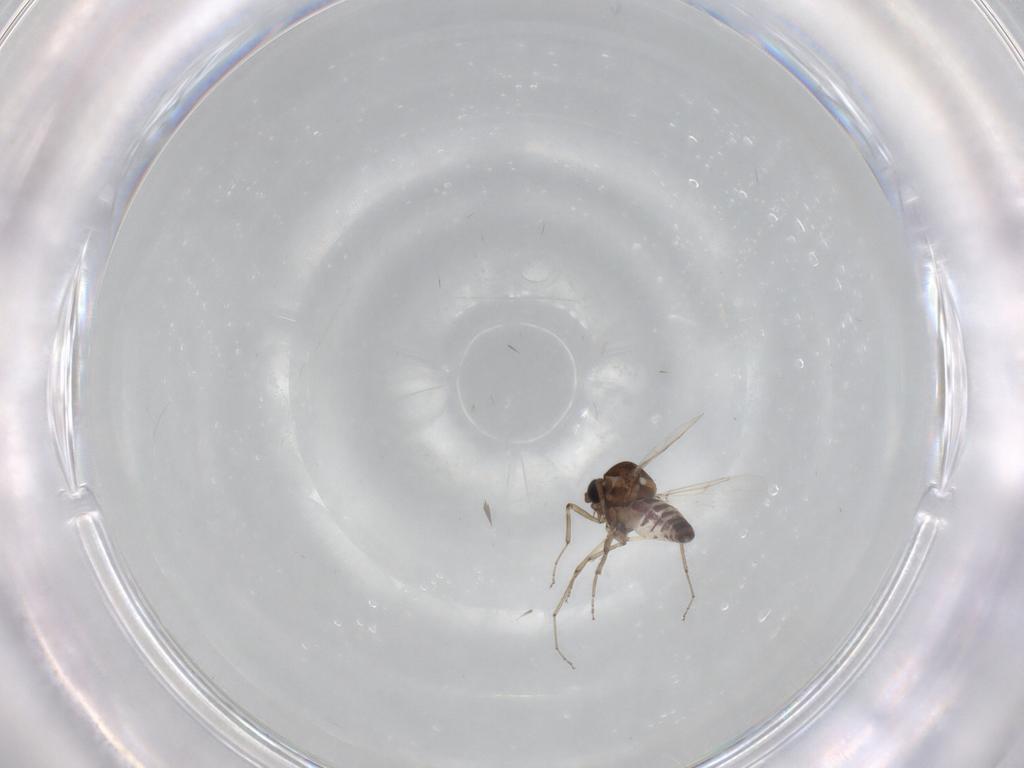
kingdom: Animalia
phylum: Arthropoda
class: Insecta
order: Diptera
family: Ceratopogonidae
